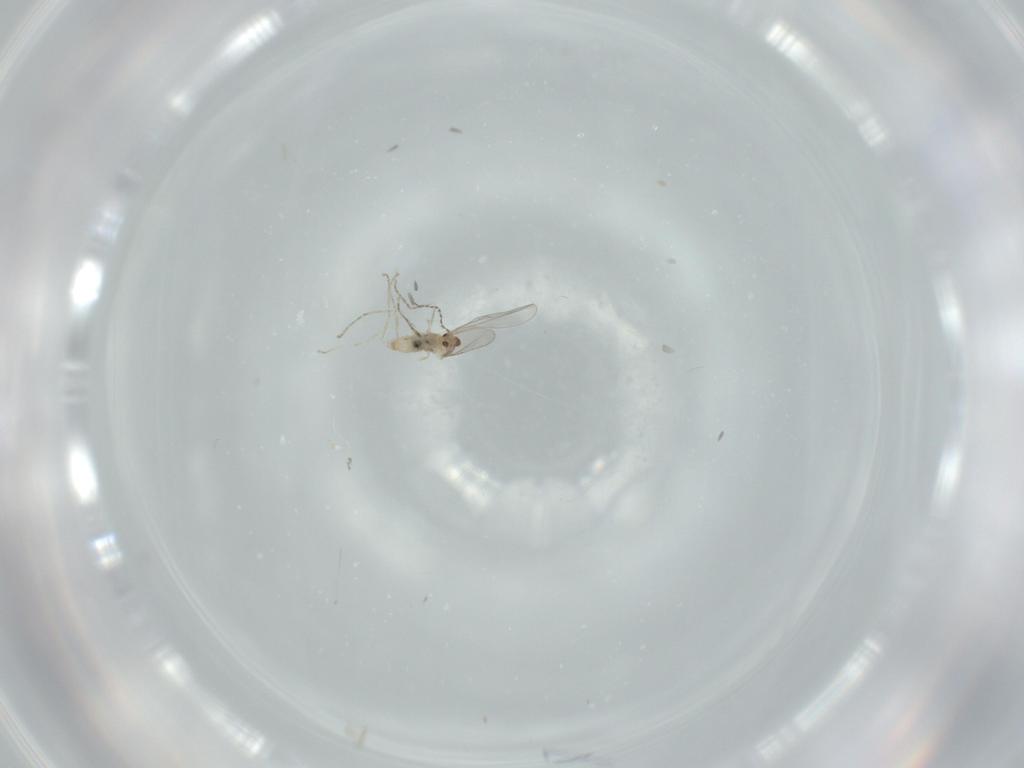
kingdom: Animalia
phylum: Arthropoda
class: Insecta
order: Diptera
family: Cecidomyiidae
